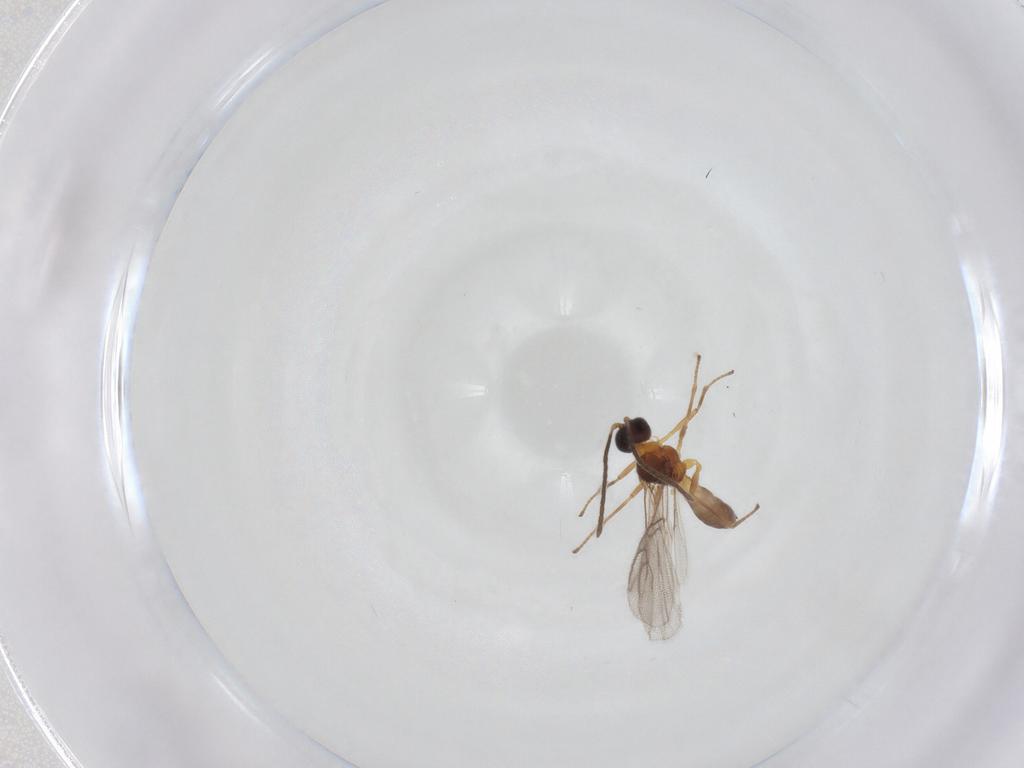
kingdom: Animalia
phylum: Arthropoda
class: Insecta
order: Hymenoptera
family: Braconidae
